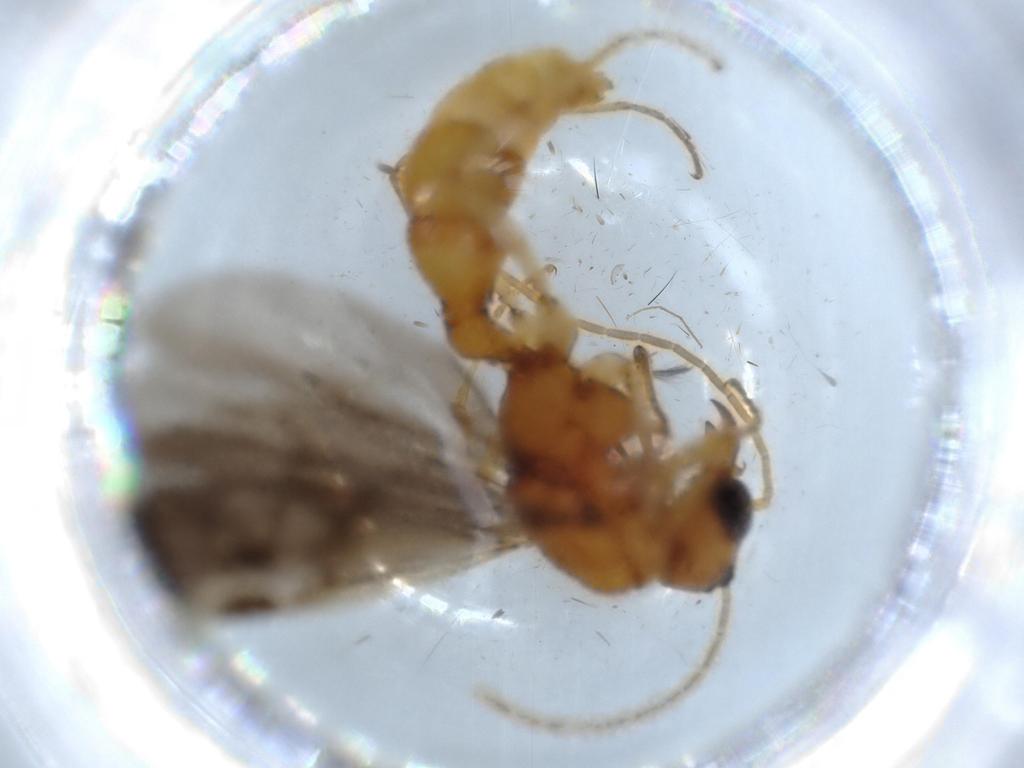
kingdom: Animalia
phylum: Arthropoda
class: Insecta
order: Hymenoptera
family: Formicidae
